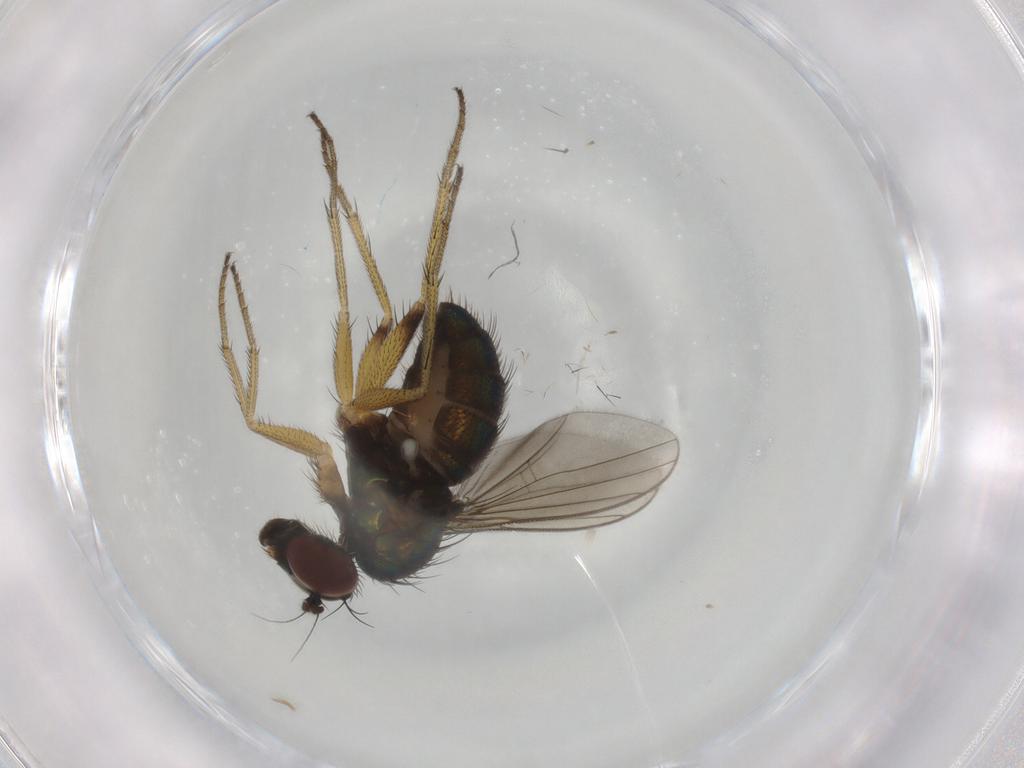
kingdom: Animalia
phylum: Arthropoda
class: Insecta
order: Diptera
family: Dolichopodidae
